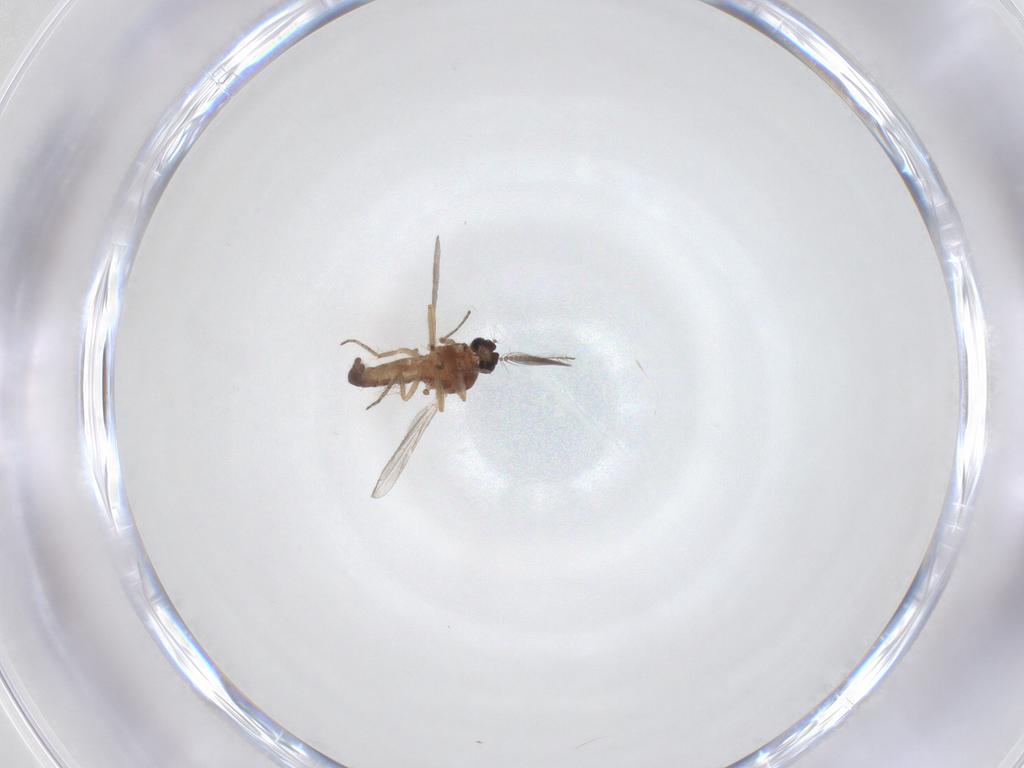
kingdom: Animalia
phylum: Arthropoda
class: Insecta
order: Diptera
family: Ceratopogonidae
